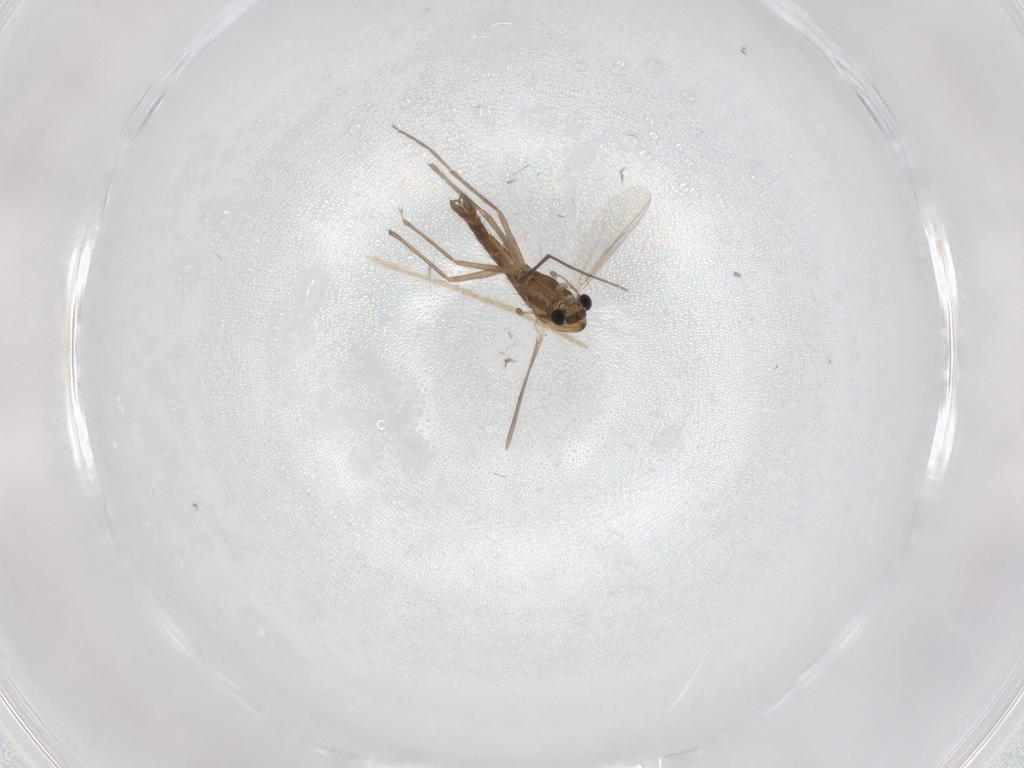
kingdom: Animalia
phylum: Arthropoda
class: Insecta
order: Diptera
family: Chironomidae
